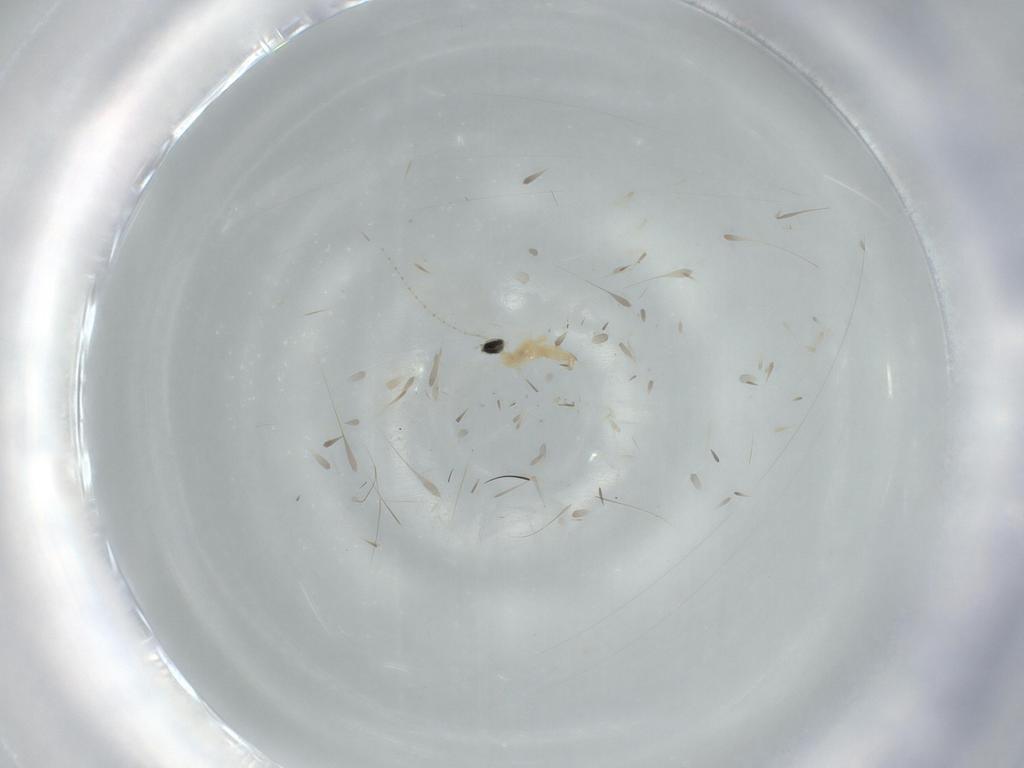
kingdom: Animalia
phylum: Arthropoda
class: Insecta
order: Diptera
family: Cecidomyiidae
